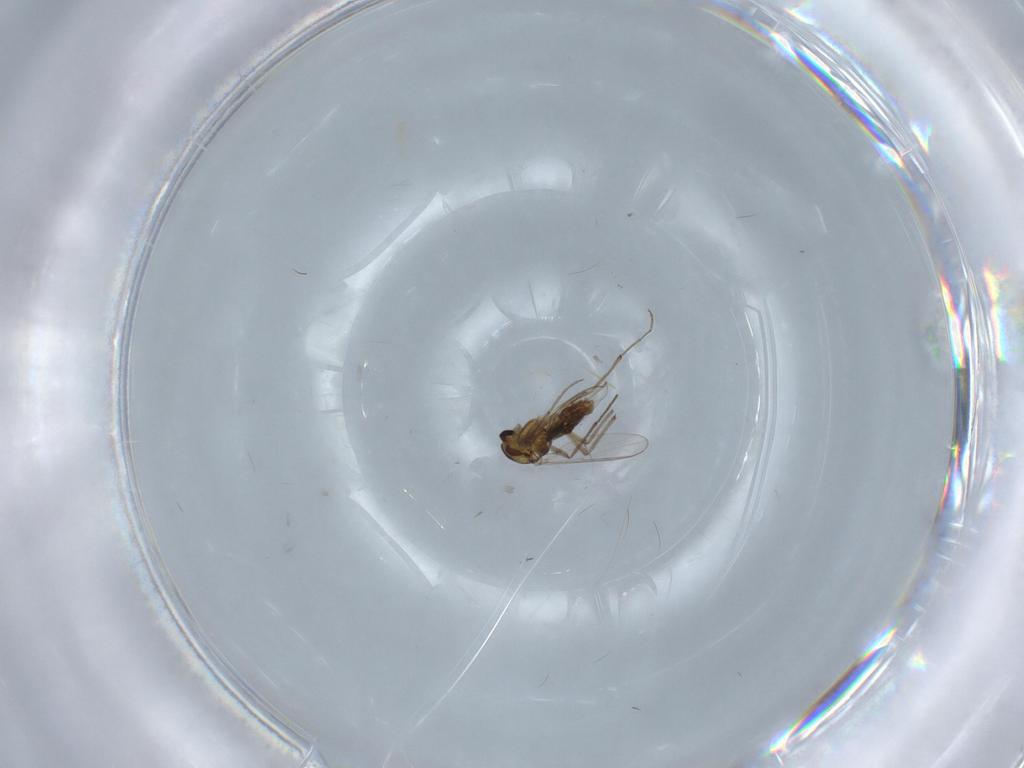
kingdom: Animalia
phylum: Arthropoda
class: Insecta
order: Diptera
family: Chironomidae
